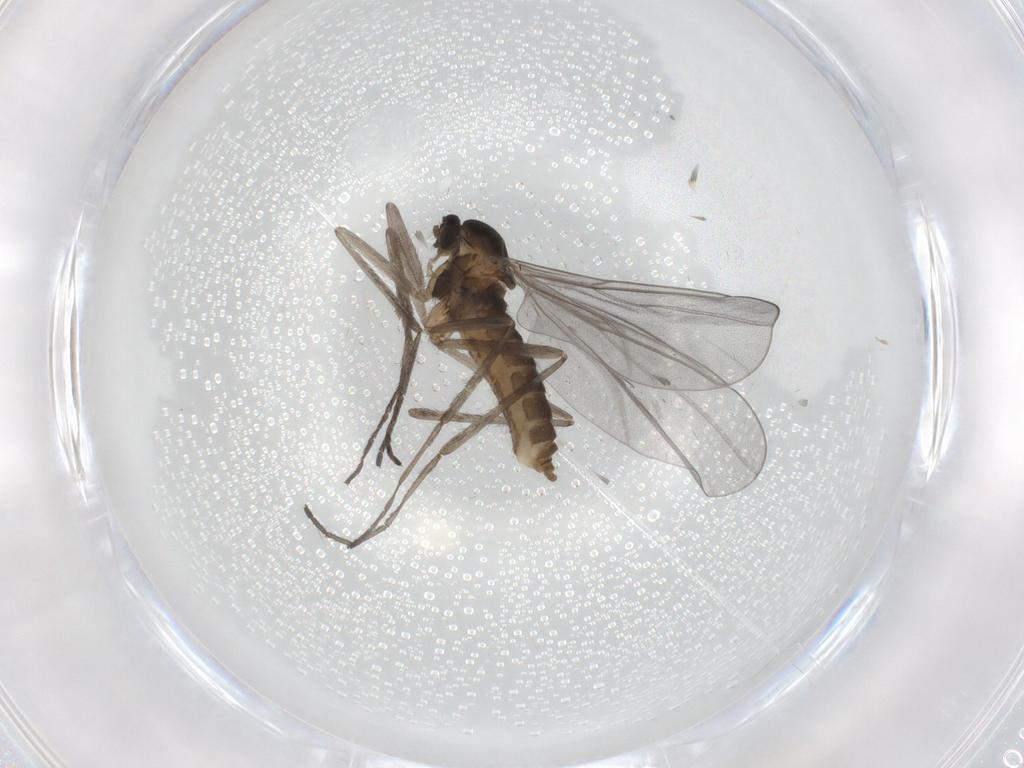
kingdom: Animalia
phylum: Arthropoda
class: Insecta
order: Diptera
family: Cecidomyiidae
